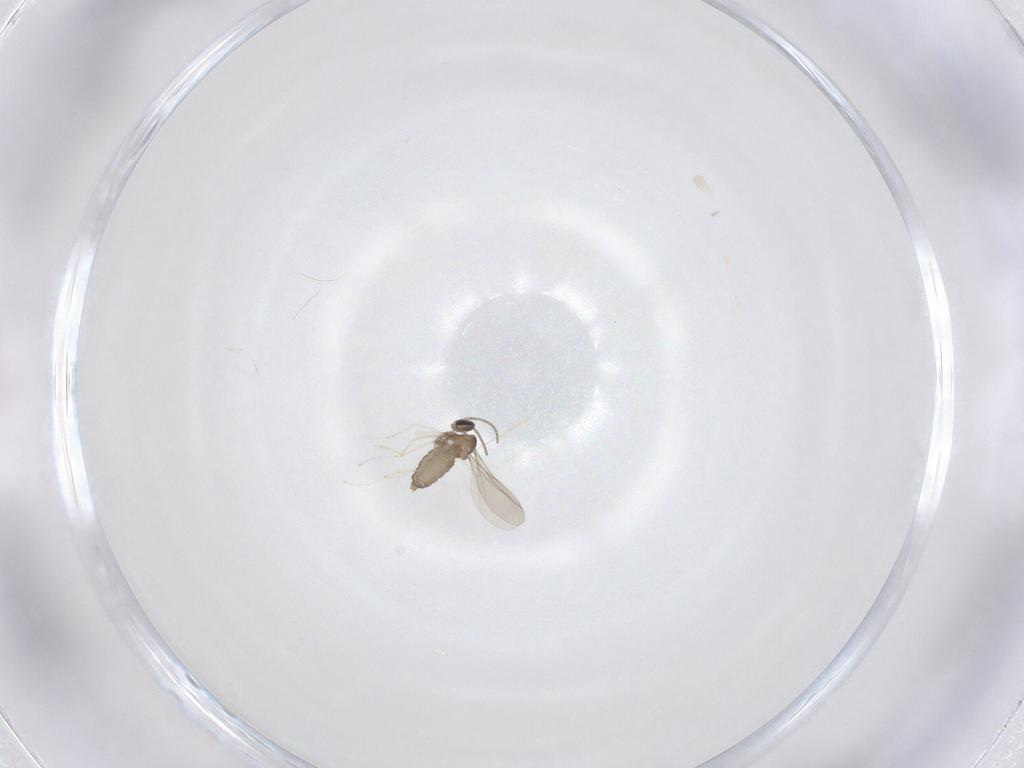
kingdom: Animalia
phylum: Arthropoda
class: Insecta
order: Diptera
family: Cecidomyiidae
